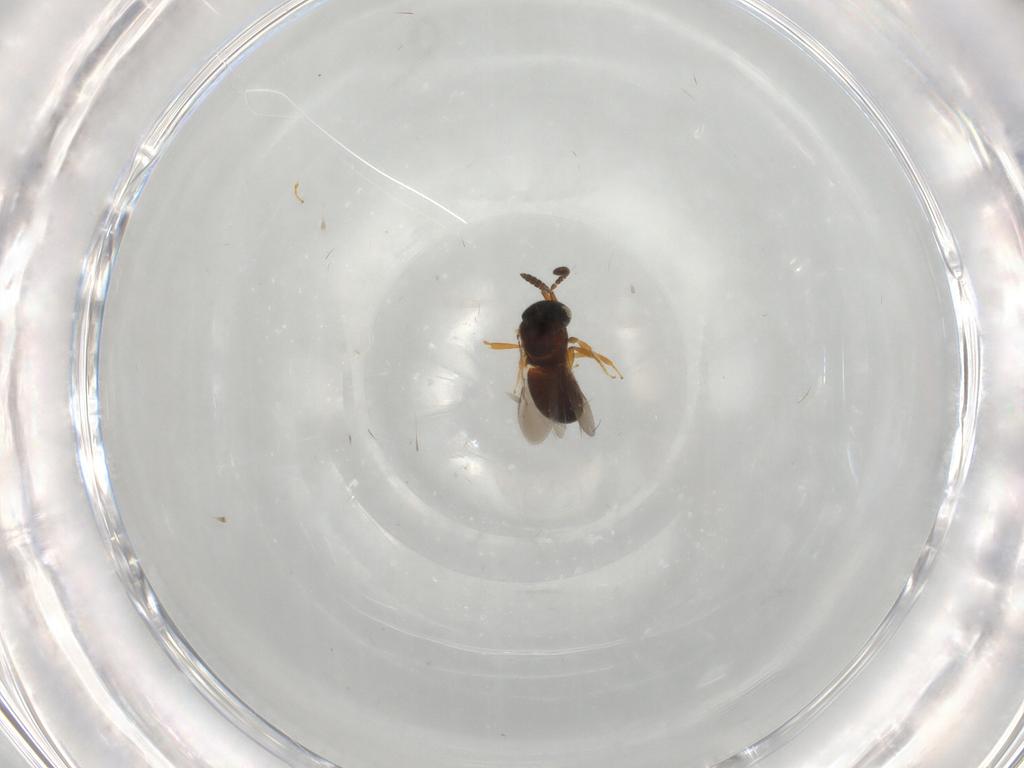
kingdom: Animalia
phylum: Arthropoda
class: Insecta
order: Hymenoptera
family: Scelionidae
